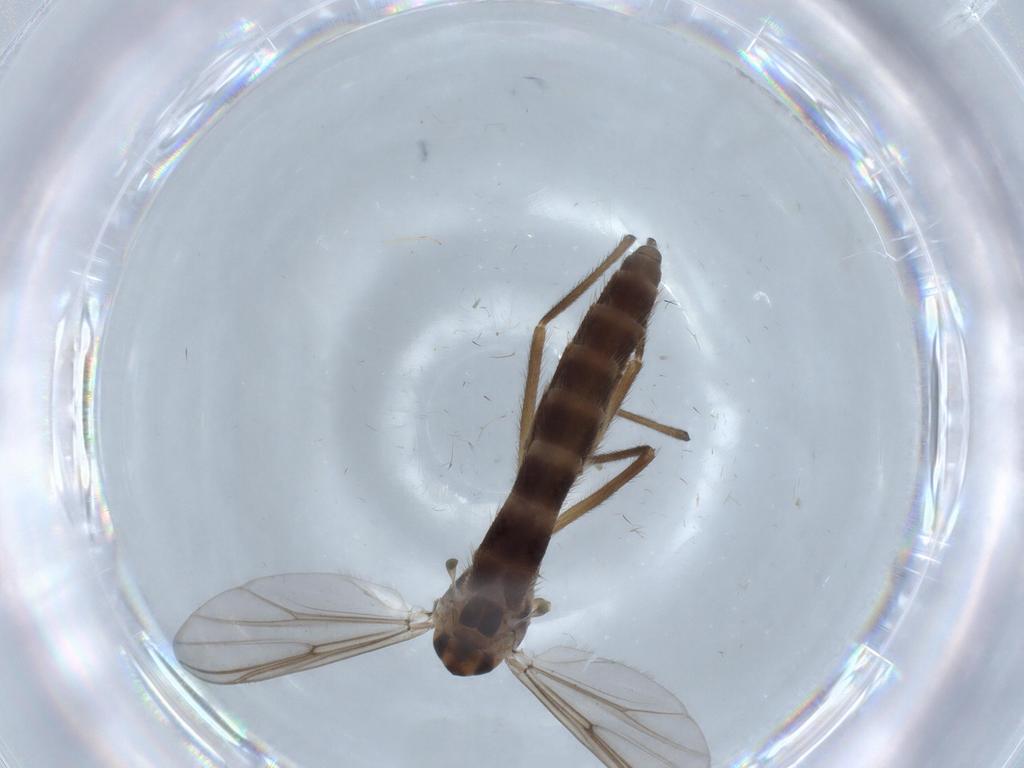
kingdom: Animalia
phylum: Arthropoda
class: Insecta
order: Diptera
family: Chironomidae
